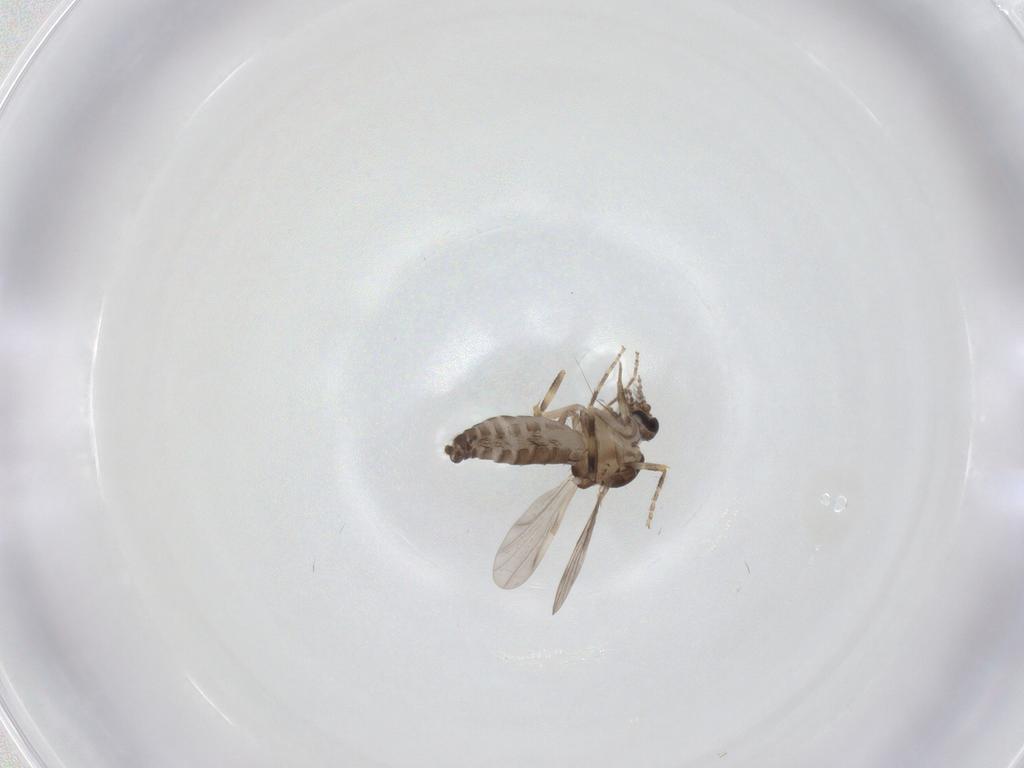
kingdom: Animalia
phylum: Arthropoda
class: Insecta
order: Diptera
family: Ceratopogonidae
